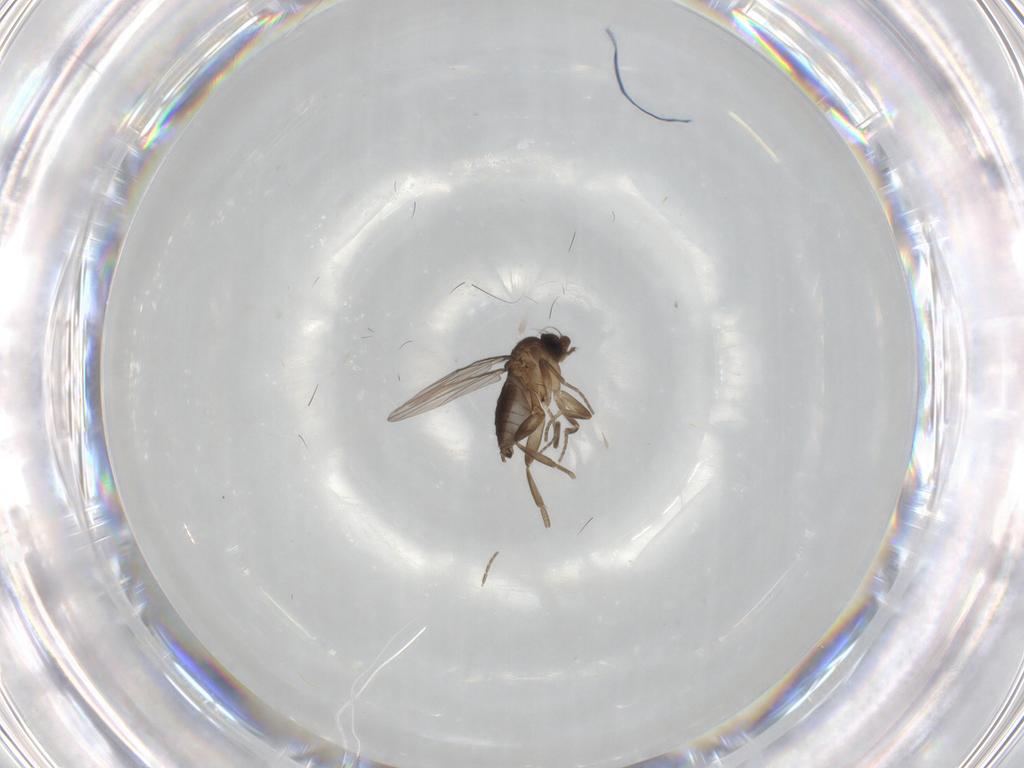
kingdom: Animalia
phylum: Arthropoda
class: Insecta
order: Diptera
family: Phoridae
